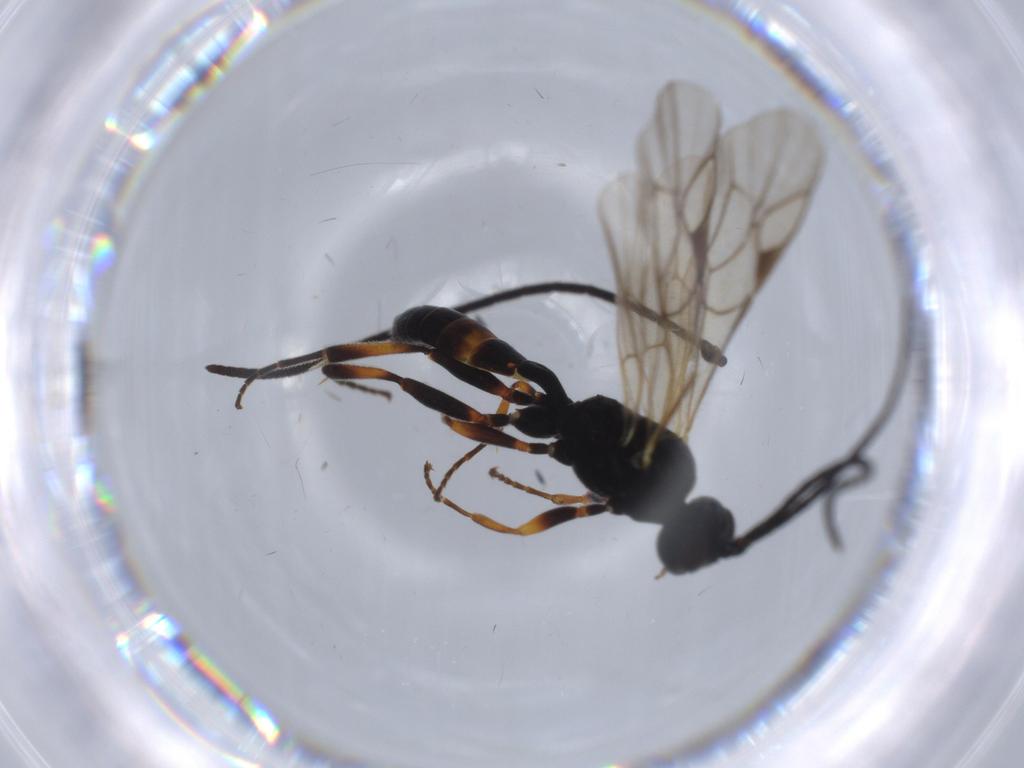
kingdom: Animalia
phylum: Arthropoda
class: Insecta
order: Hymenoptera
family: Ichneumonidae
